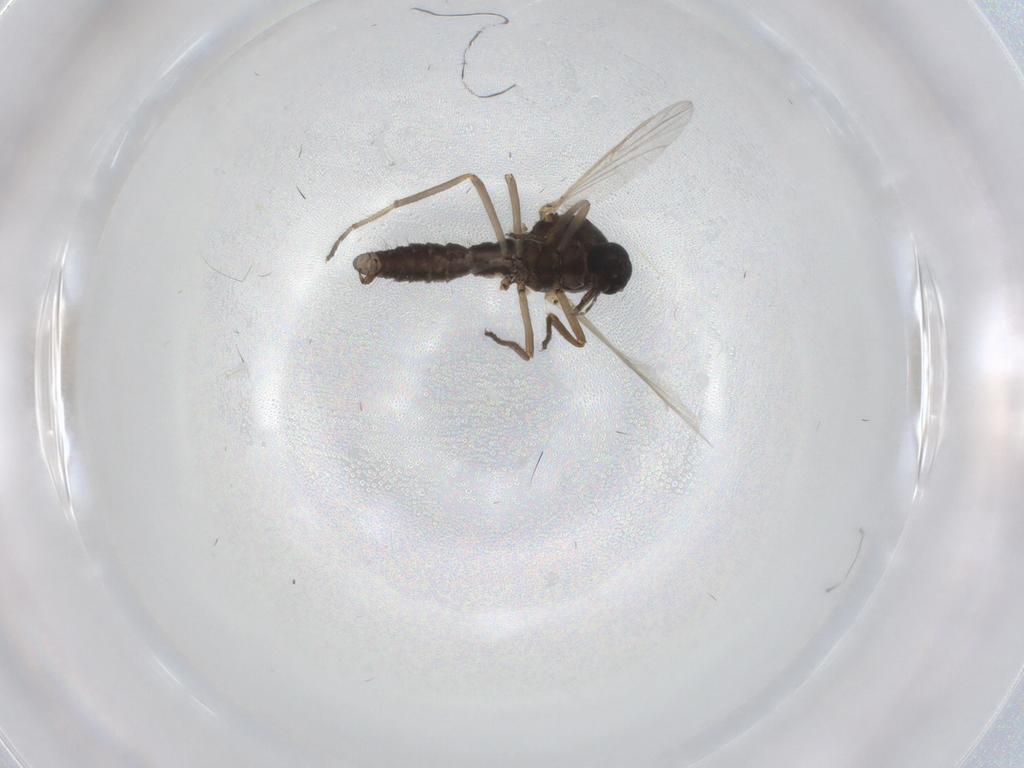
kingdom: Animalia
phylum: Arthropoda
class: Insecta
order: Diptera
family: Ceratopogonidae
